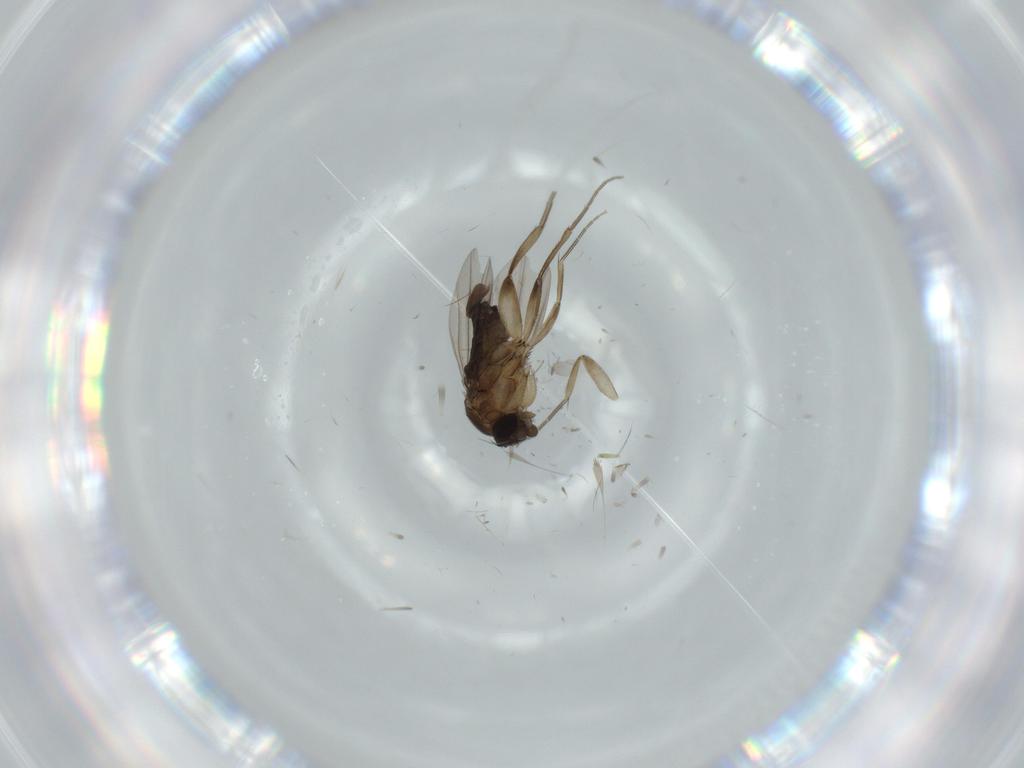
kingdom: Animalia
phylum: Arthropoda
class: Insecta
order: Diptera
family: Phoridae
